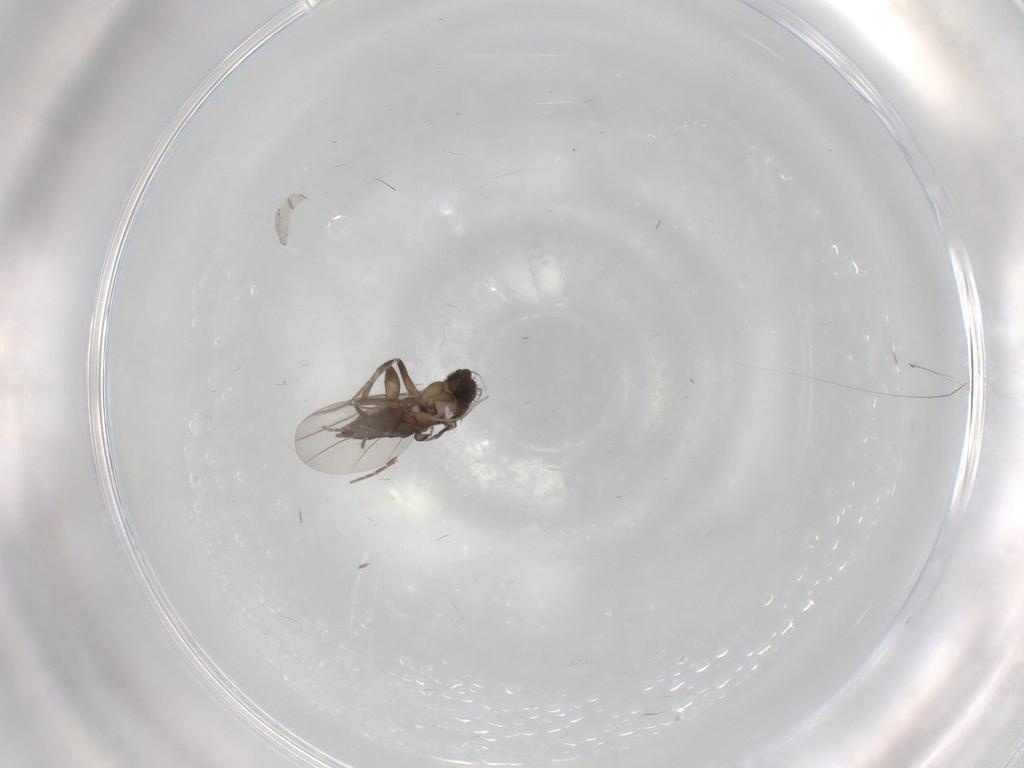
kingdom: Animalia
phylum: Arthropoda
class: Insecta
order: Diptera
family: Cecidomyiidae
